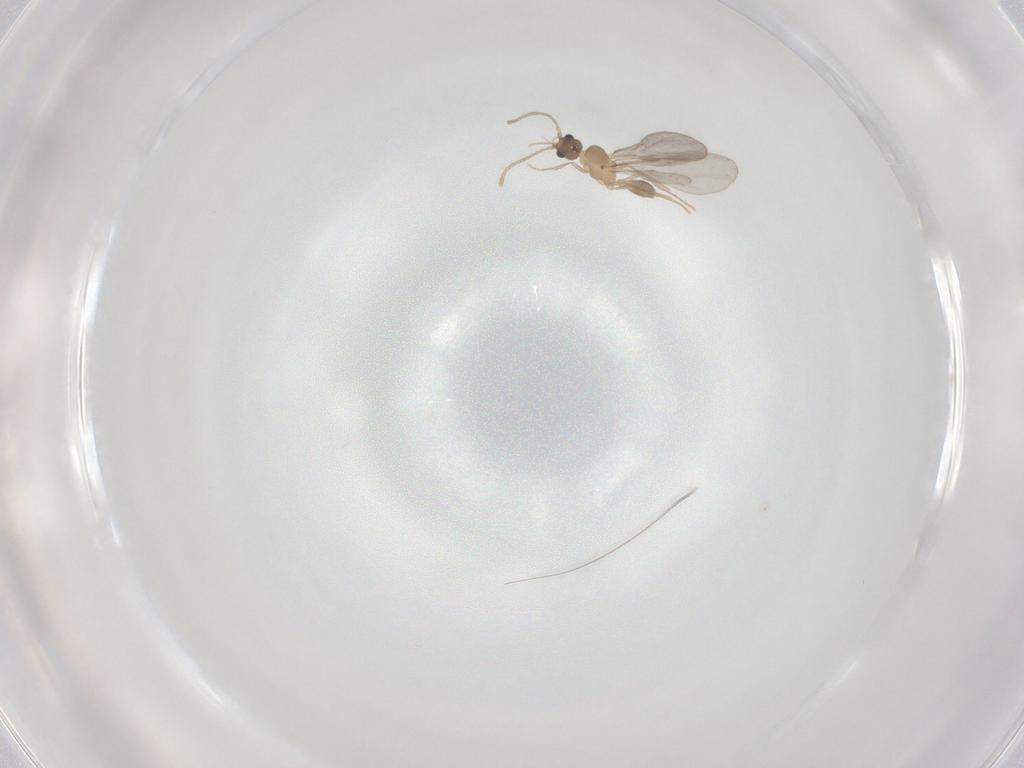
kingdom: Animalia
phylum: Arthropoda
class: Insecta
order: Hymenoptera
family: Formicidae
